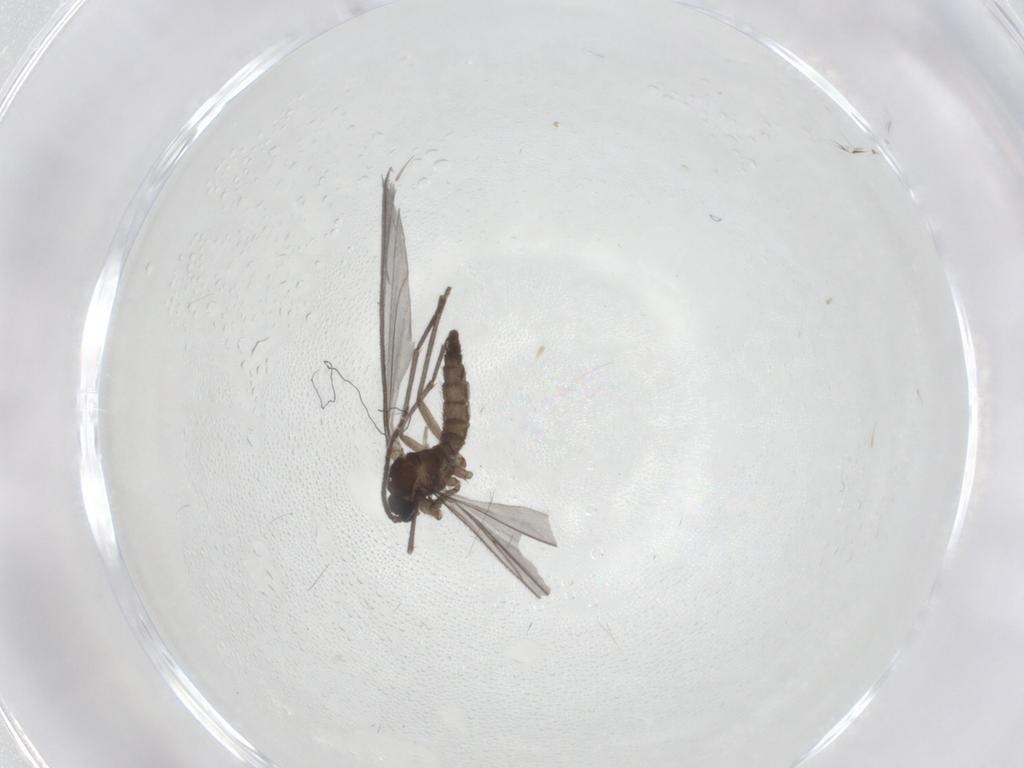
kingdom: Animalia
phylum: Arthropoda
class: Insecta
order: Diptera
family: Sciaridae
